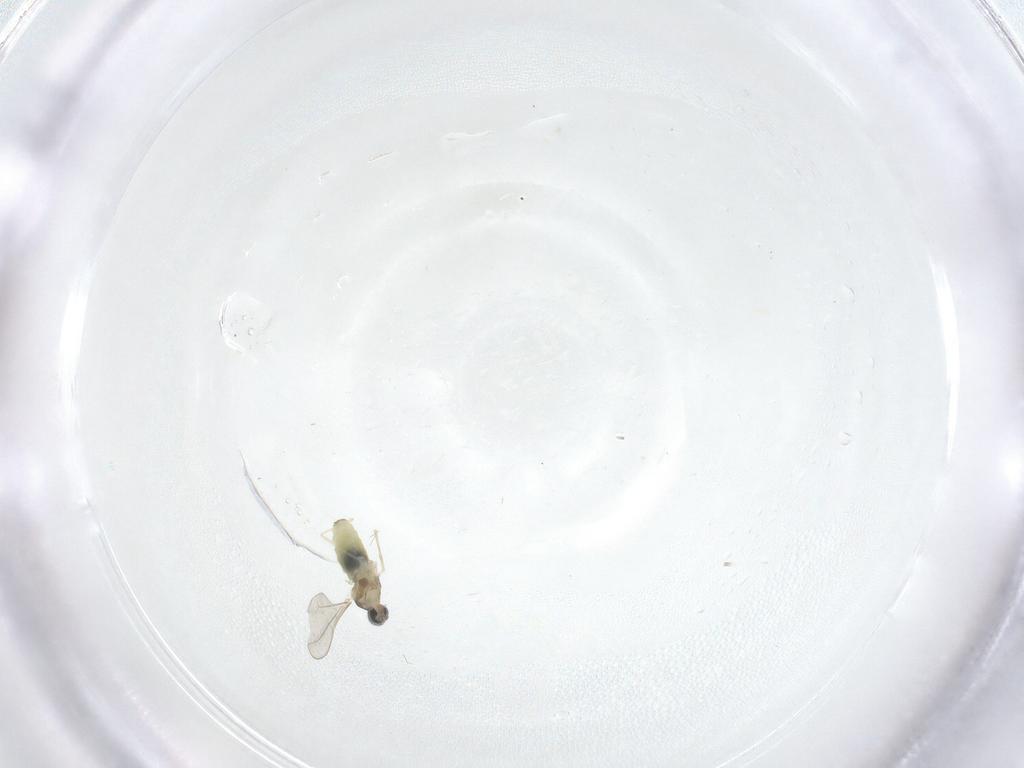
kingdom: Animalia
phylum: Arthropoda
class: Insecta
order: Diptera
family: Cecidomyiidae
